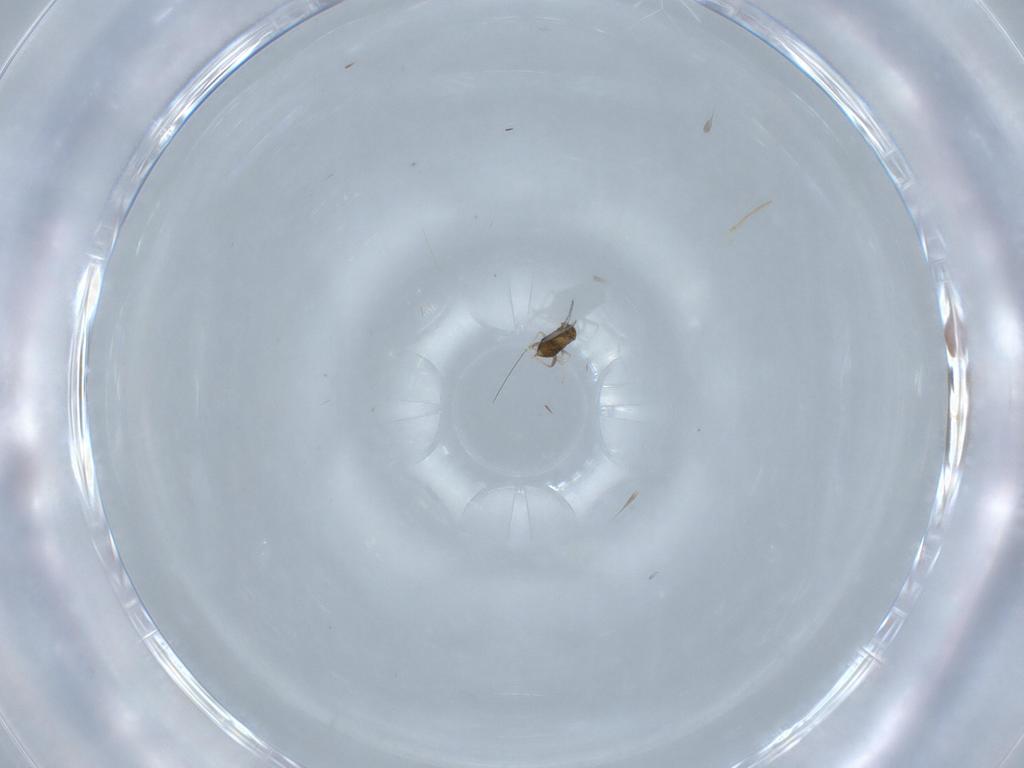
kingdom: Animalia
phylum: Arthropoda
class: Insecta
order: Hymenoptera
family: Trichogrammatidae
